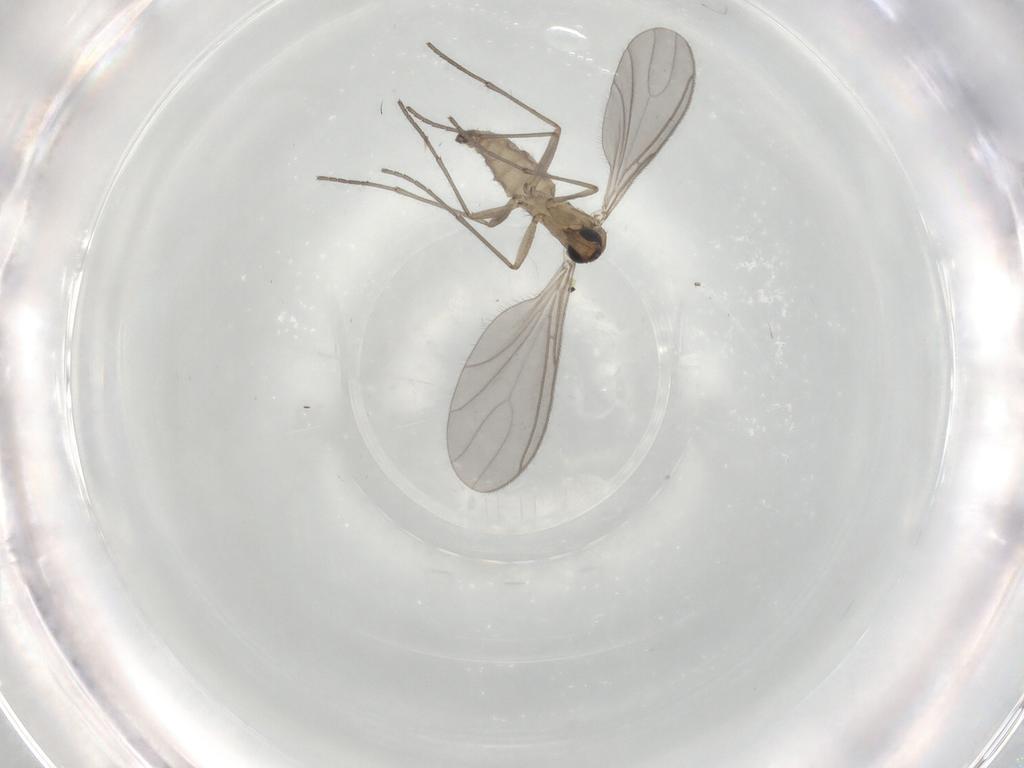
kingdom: Animalia
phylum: Arthropoda
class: Insecta
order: Diptera
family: Sciaridae
